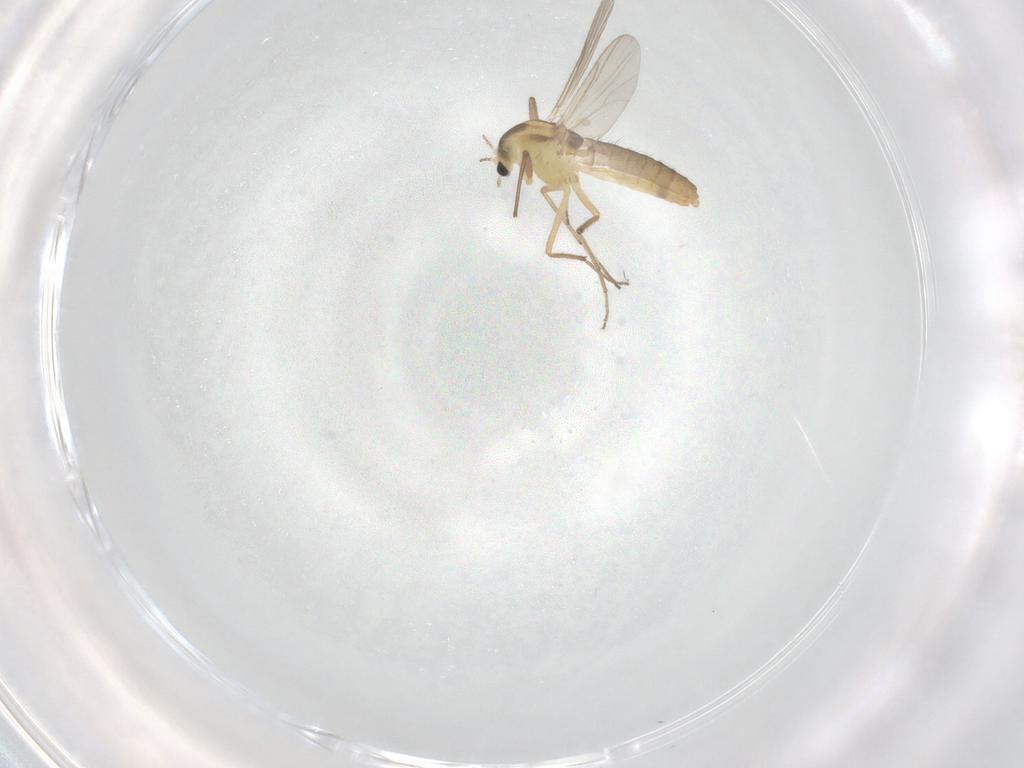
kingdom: Animalia
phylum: Arthropoda
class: Insecta
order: Diptera
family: Chironomidae
